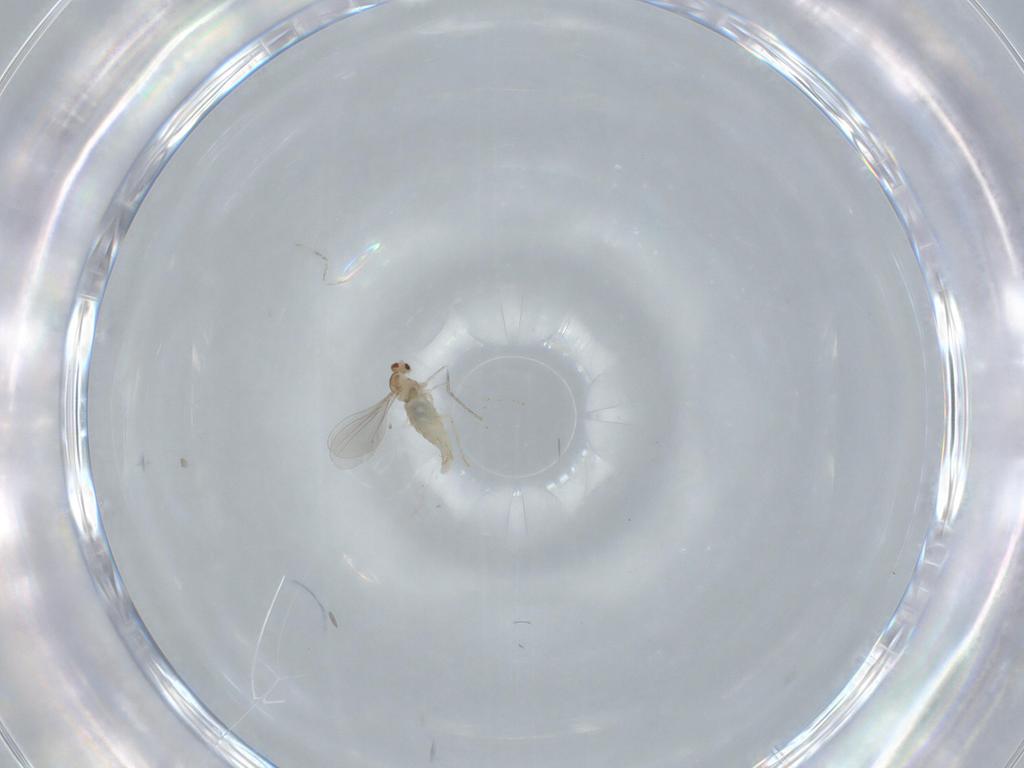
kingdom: Animalia
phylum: Arthropoda
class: Insecta
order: Diptera
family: Cecidomyiidae
